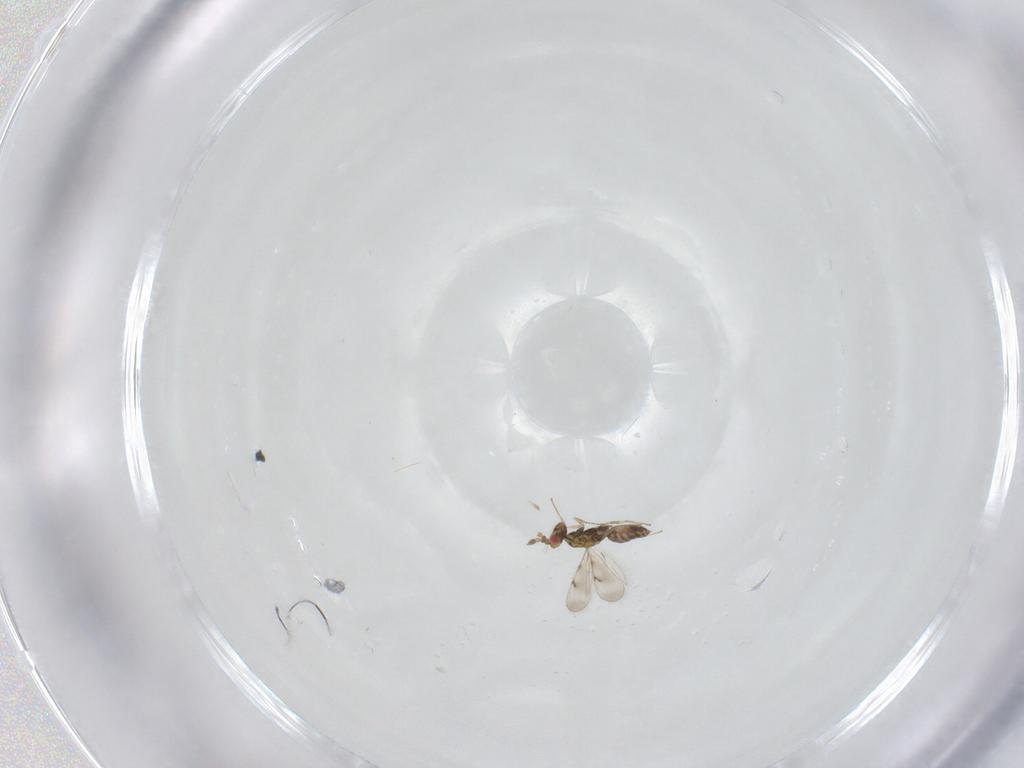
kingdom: Animalia
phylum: Arthropoda
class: Insecta
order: Hymenoptera
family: Eulophidae
